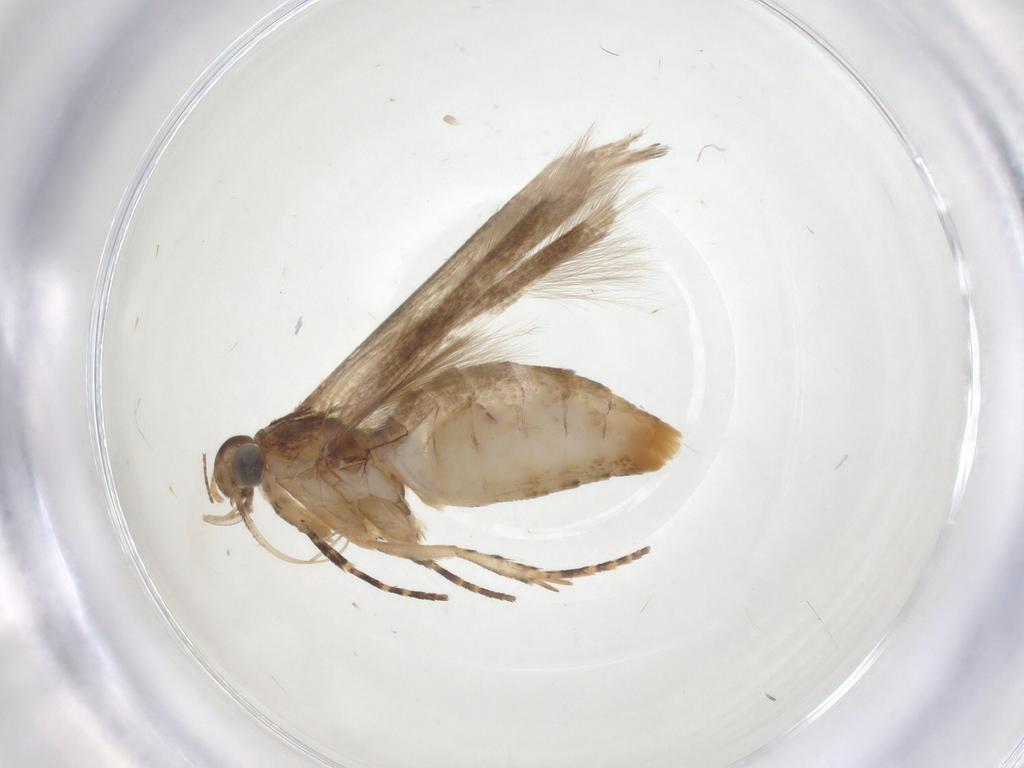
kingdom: Animalia
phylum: Arthropoda
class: Insecta
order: Lepidoptera
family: Gelechiidae
